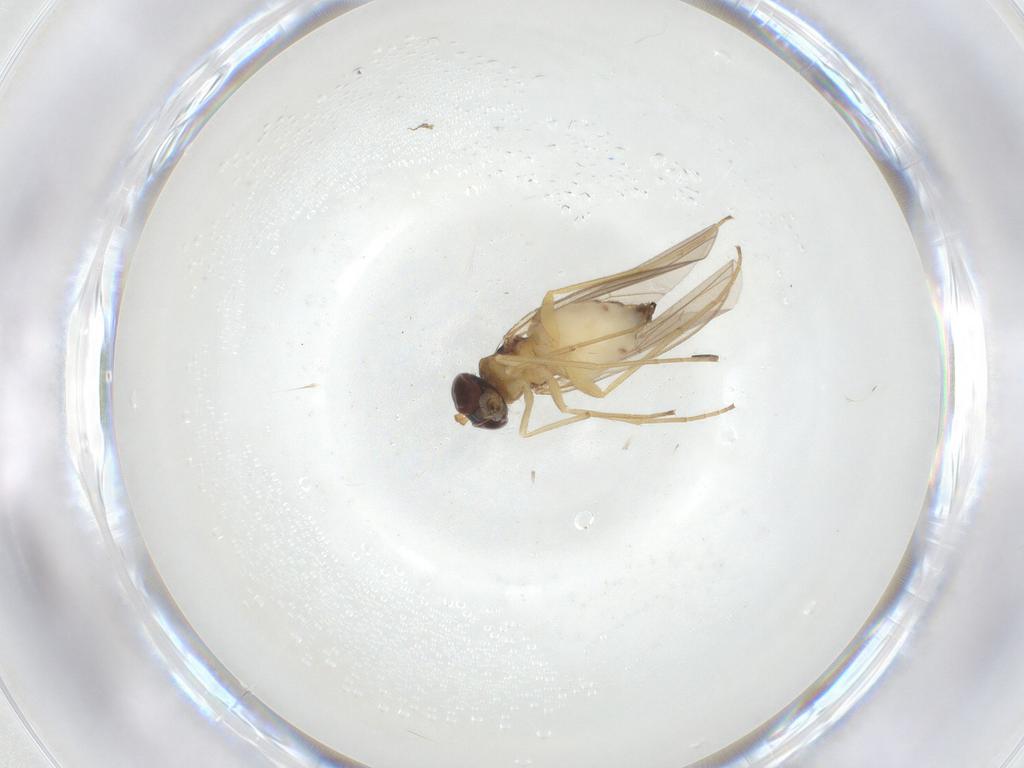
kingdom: Animalia
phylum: Arthropoda
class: Insecta
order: Diptera
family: Dolichopodidae
